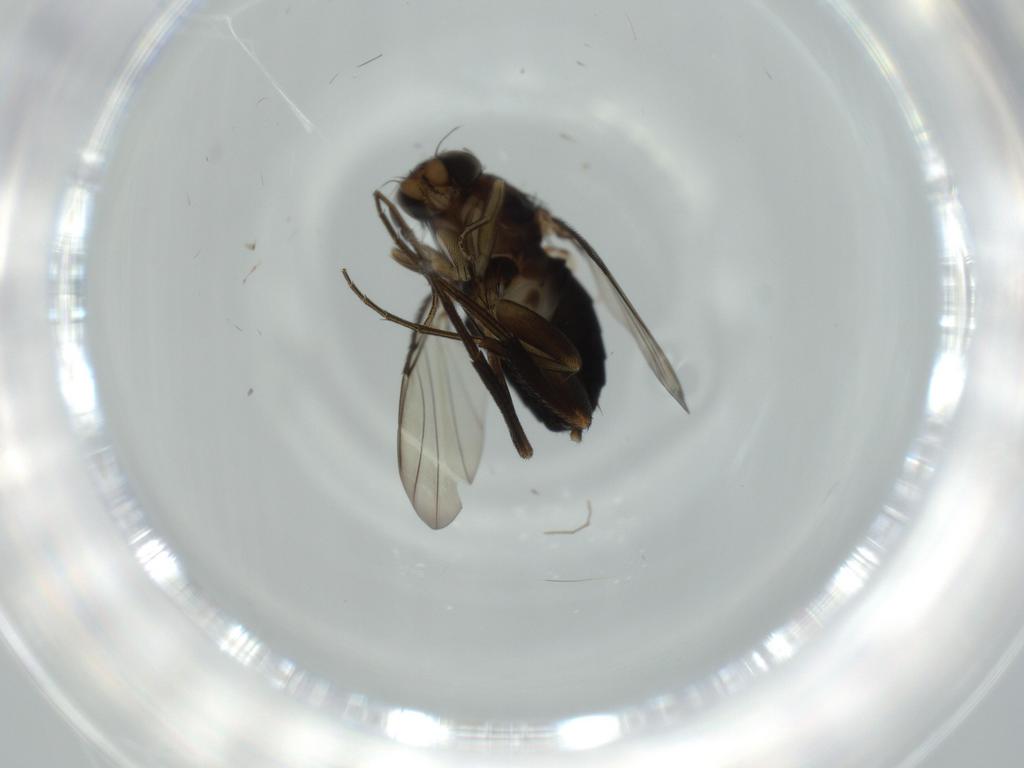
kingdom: Animalia
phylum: Arthropoda
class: Insecta
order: Diptera
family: Phoridae
